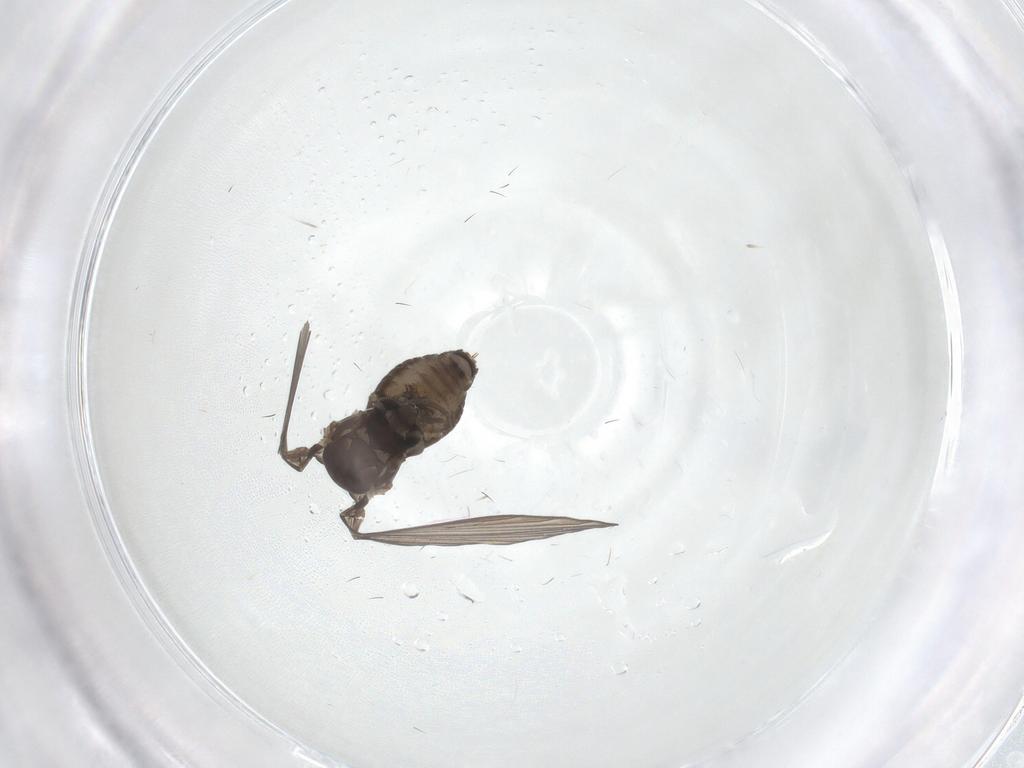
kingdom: Animalia
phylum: Arthropoda
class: Insecta
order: Diptera
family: Psychodidae
